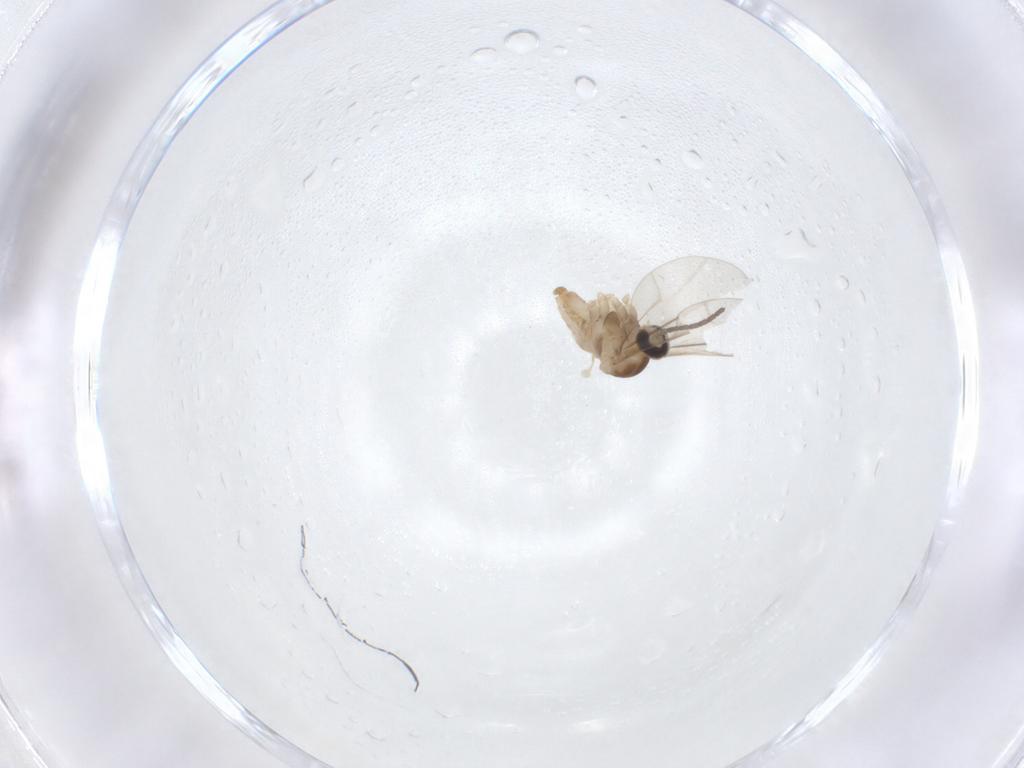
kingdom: Animalia
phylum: Arthropoda
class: Insecta
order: Diptera
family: Cecidomyiidae
